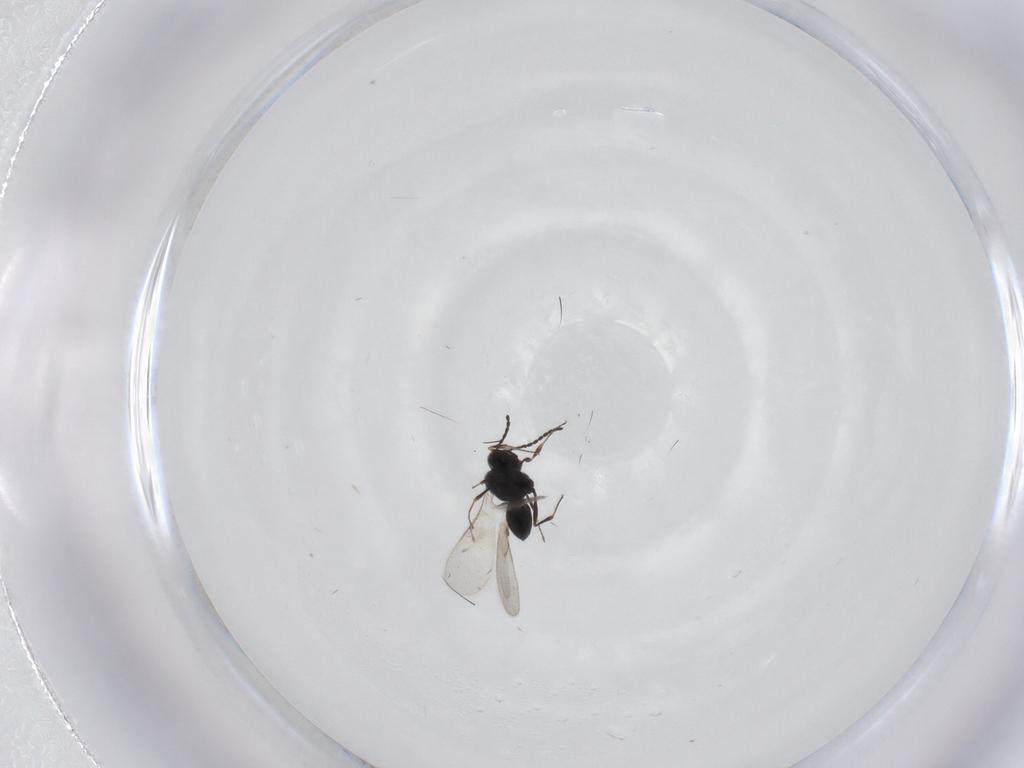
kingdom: Animalia
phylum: Arthropoda
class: Insecta
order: Hymenoptera
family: Scelionidae
